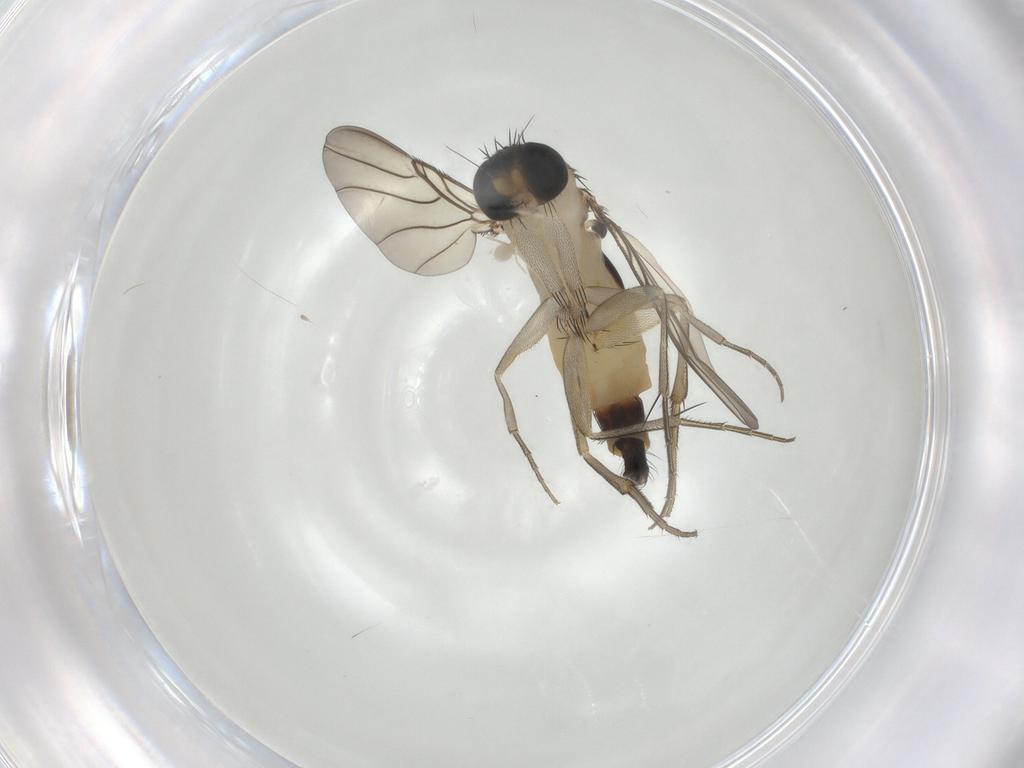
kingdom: Animalia
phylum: Arthropoda
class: Insecta
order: Diptera
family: Phoridae
